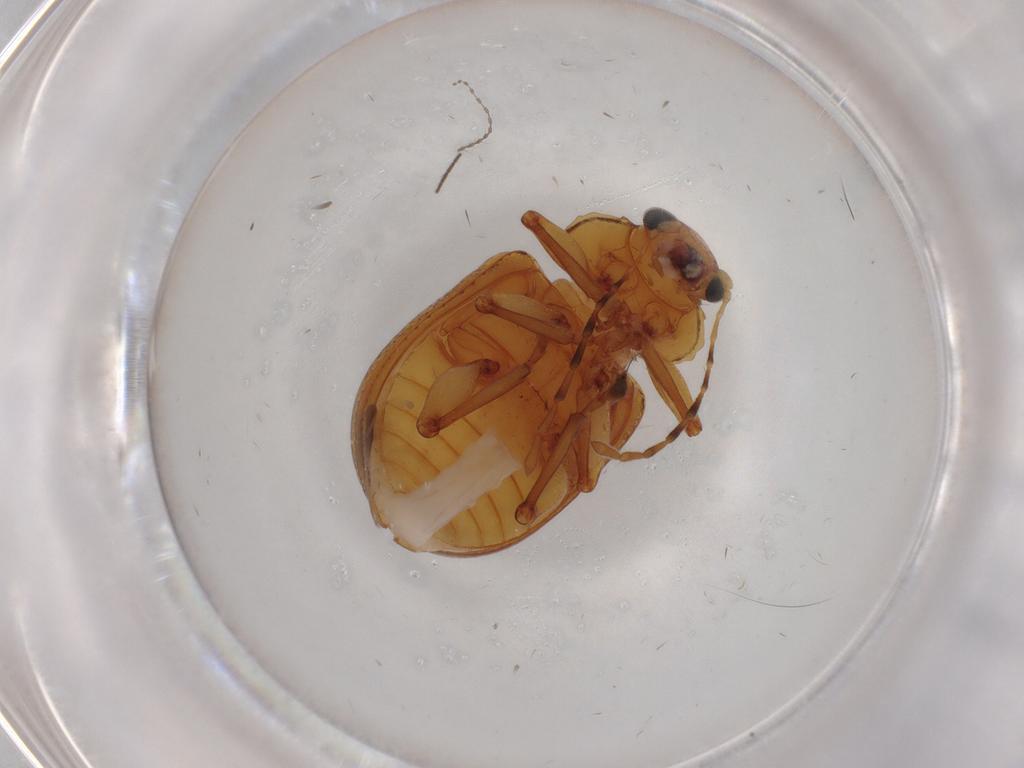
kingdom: Animalia
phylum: Arthropoda
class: Insecta
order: Coleoptera
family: Chrysomelidae
